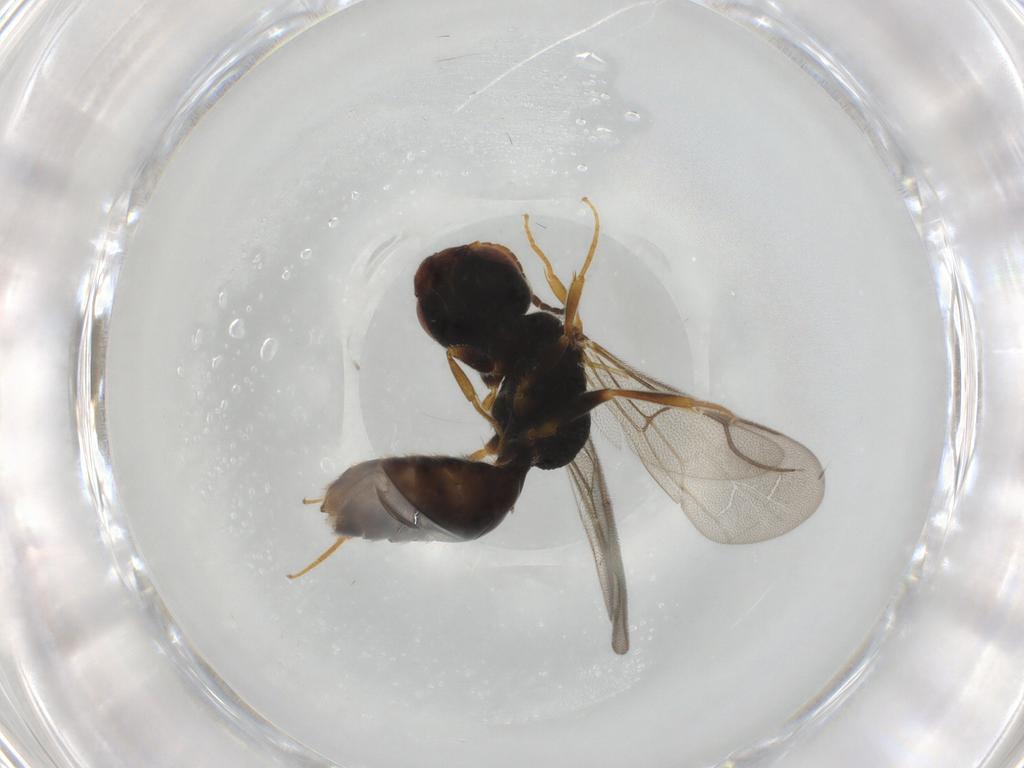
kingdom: Animalia
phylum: Arthropoda
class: Insecta
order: Hymenoptera
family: Bethylidae
